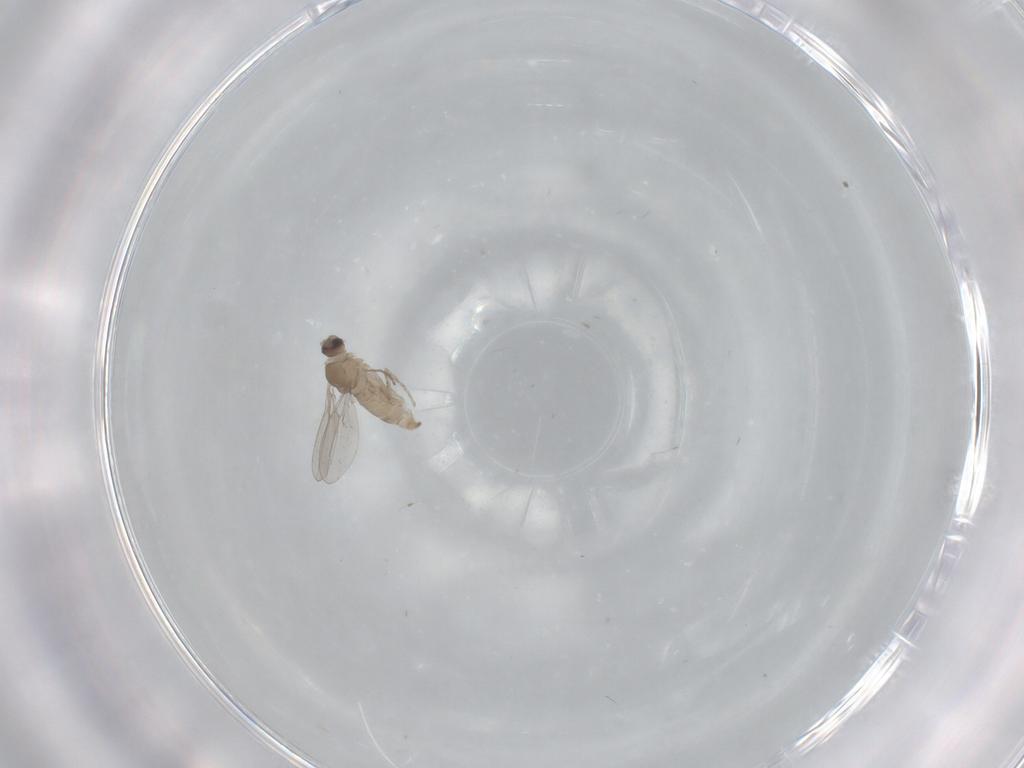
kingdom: Animalia
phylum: Arthropoda
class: Insecta
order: Diptera
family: Cecidomyiidae
